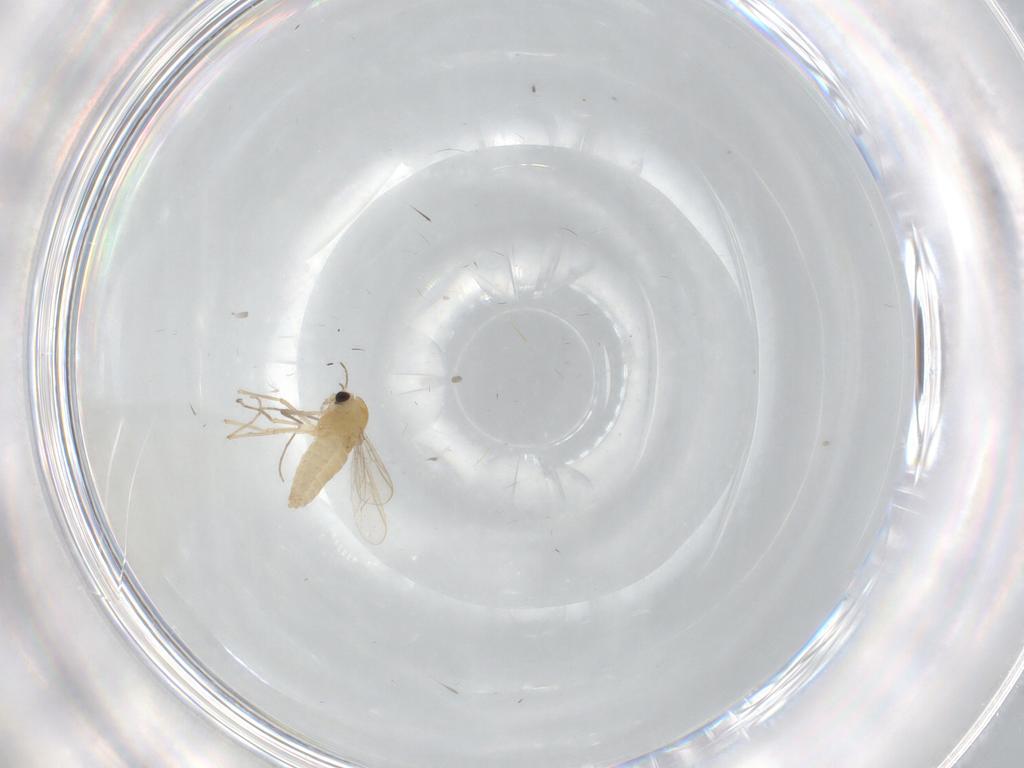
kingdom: Animalia
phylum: Arthropoda
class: Insecta
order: Diptera
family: Chironomidae
